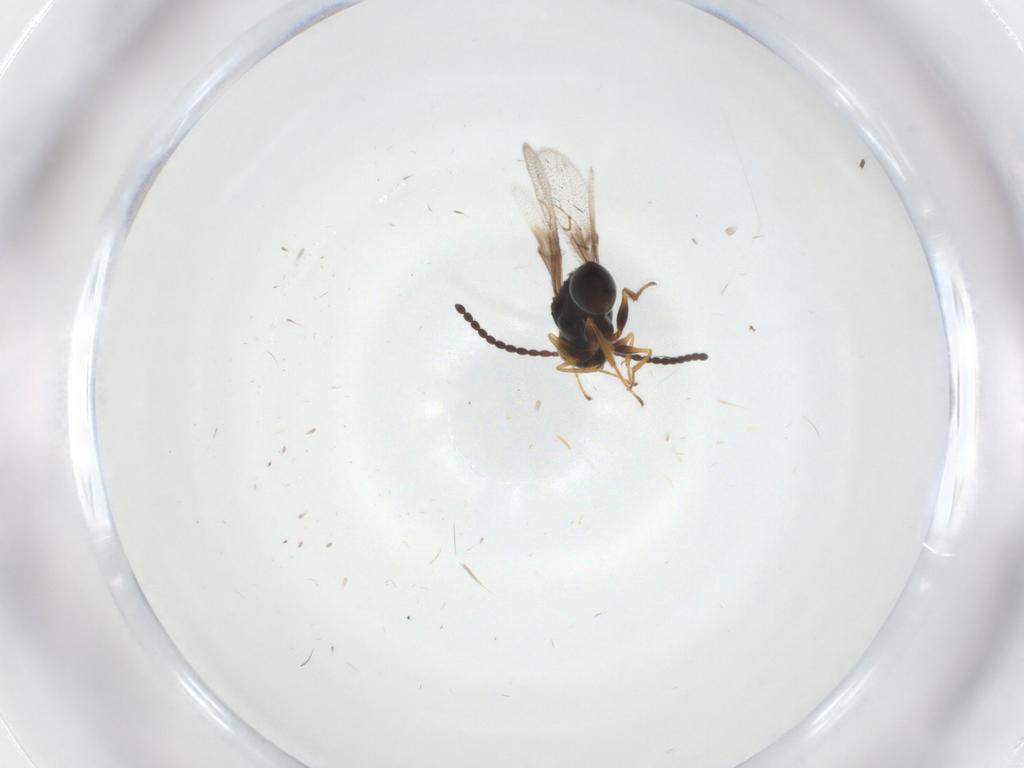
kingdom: Animalia
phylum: Arthropoda
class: Insecta
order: Hymenoptera
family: Figitidae
